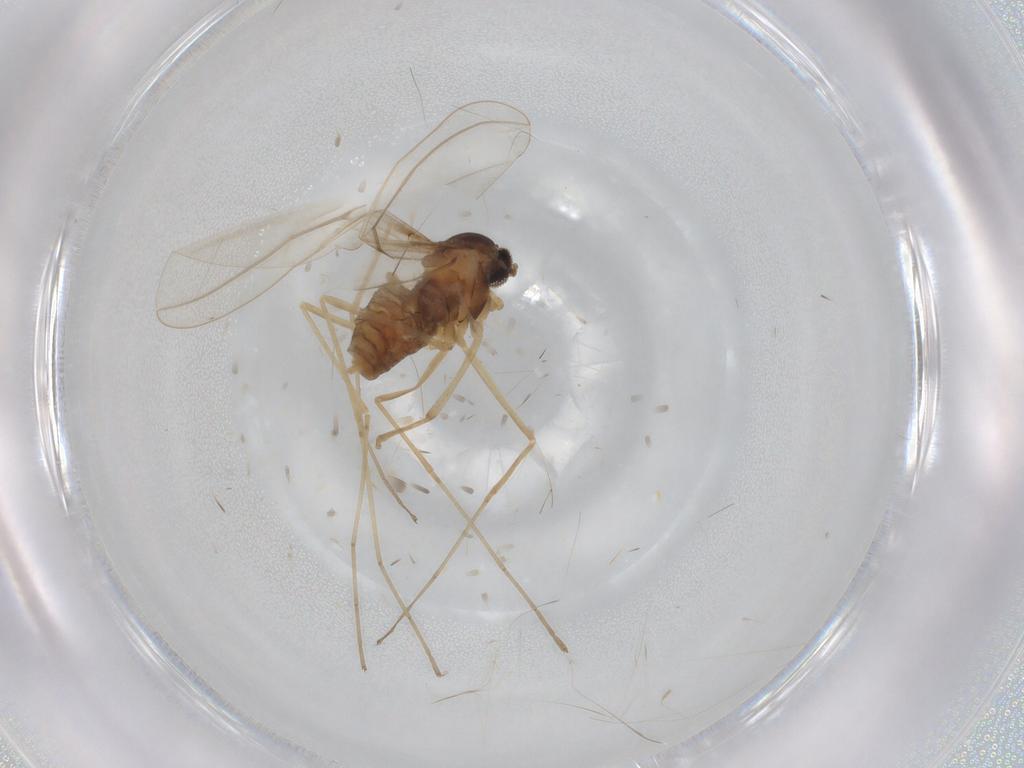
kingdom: Animalia
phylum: Arthropoda
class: Insecta
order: Diptera
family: Cecidomyiidae
